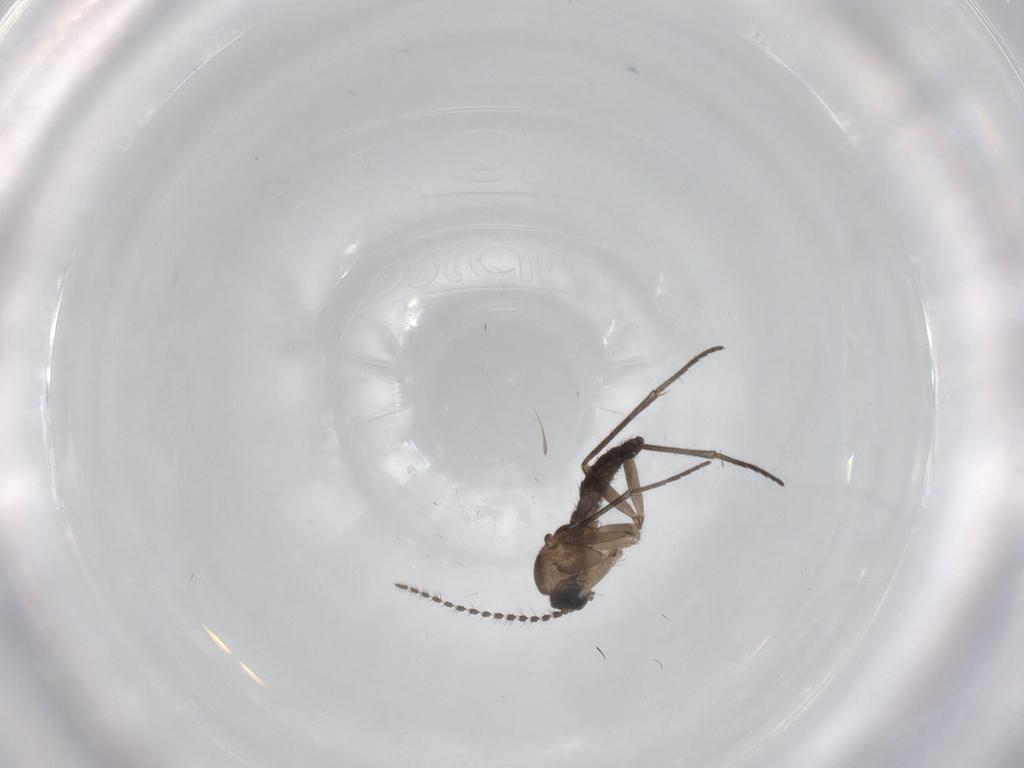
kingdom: Animalia
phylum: Arthropoda
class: Insecta
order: Diptera
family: Sciaridae
